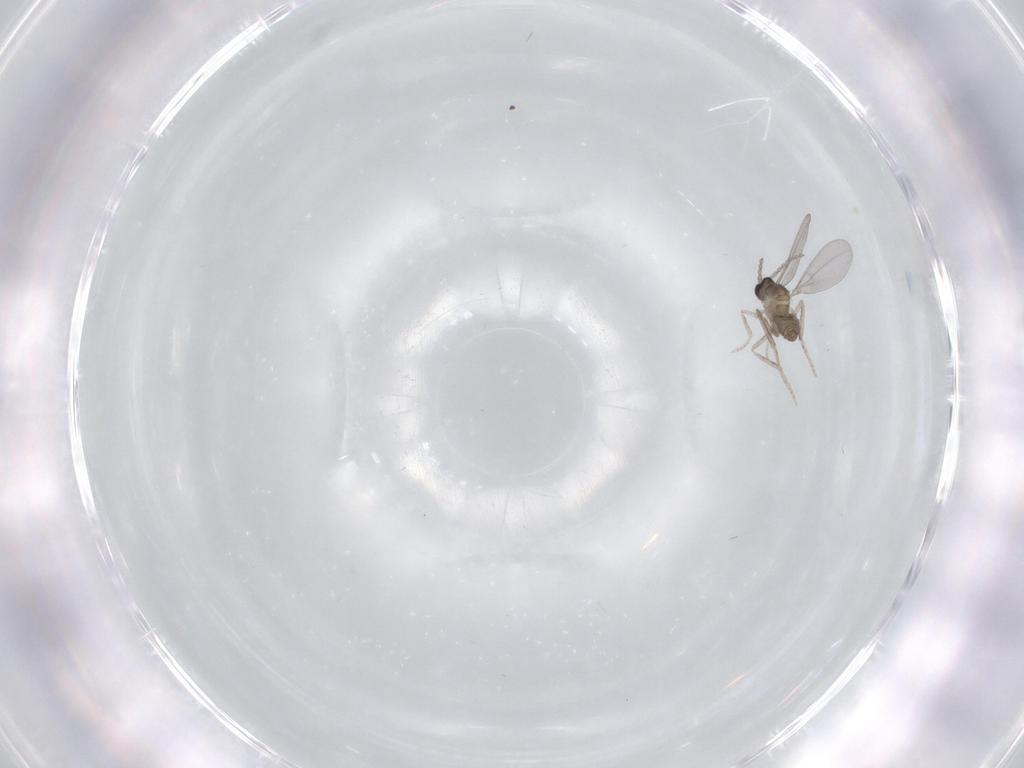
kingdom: Animalia
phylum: Arthropoda
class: Insecta
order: Diptera
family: Cecidomyiidae
